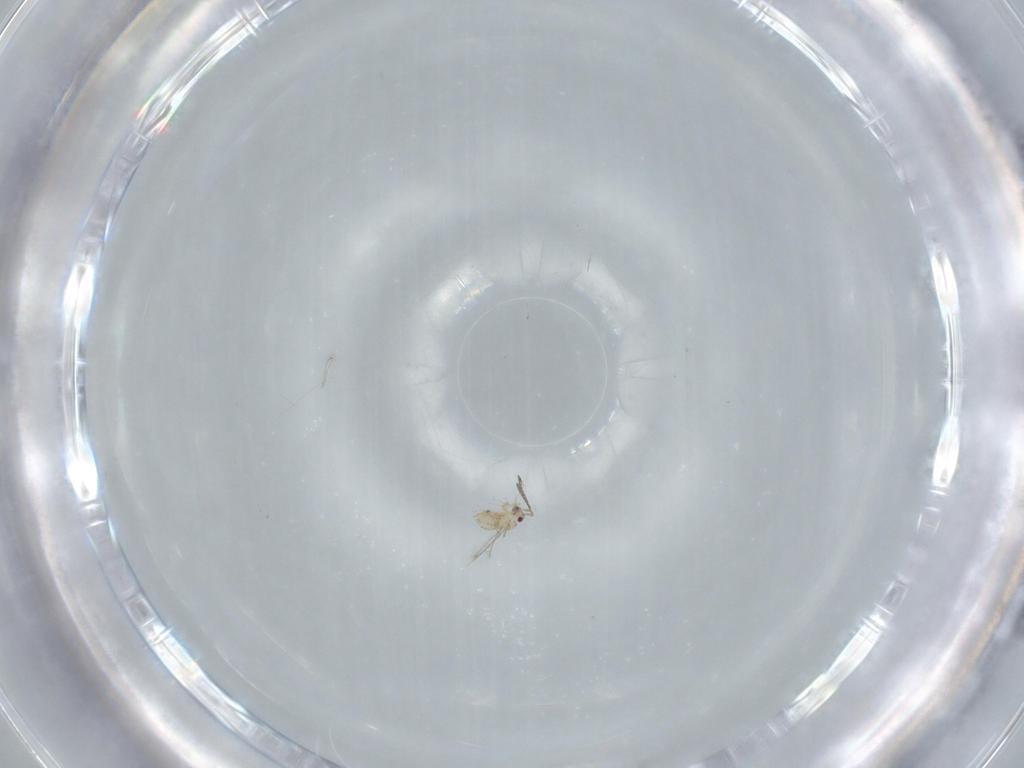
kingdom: Animalia
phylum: Arthropoda
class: Insecta
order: Hymenoptera
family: Mymaridae
